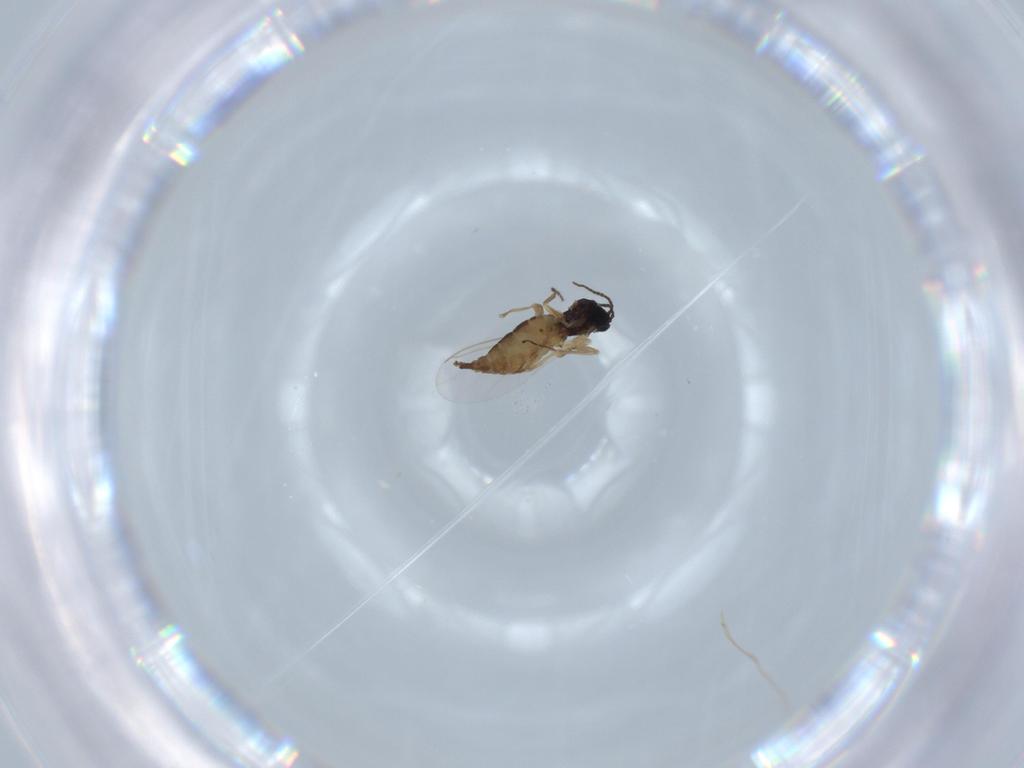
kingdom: Animalia
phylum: Arthropoda
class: Insecta
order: Diptera
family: Sciaridae
